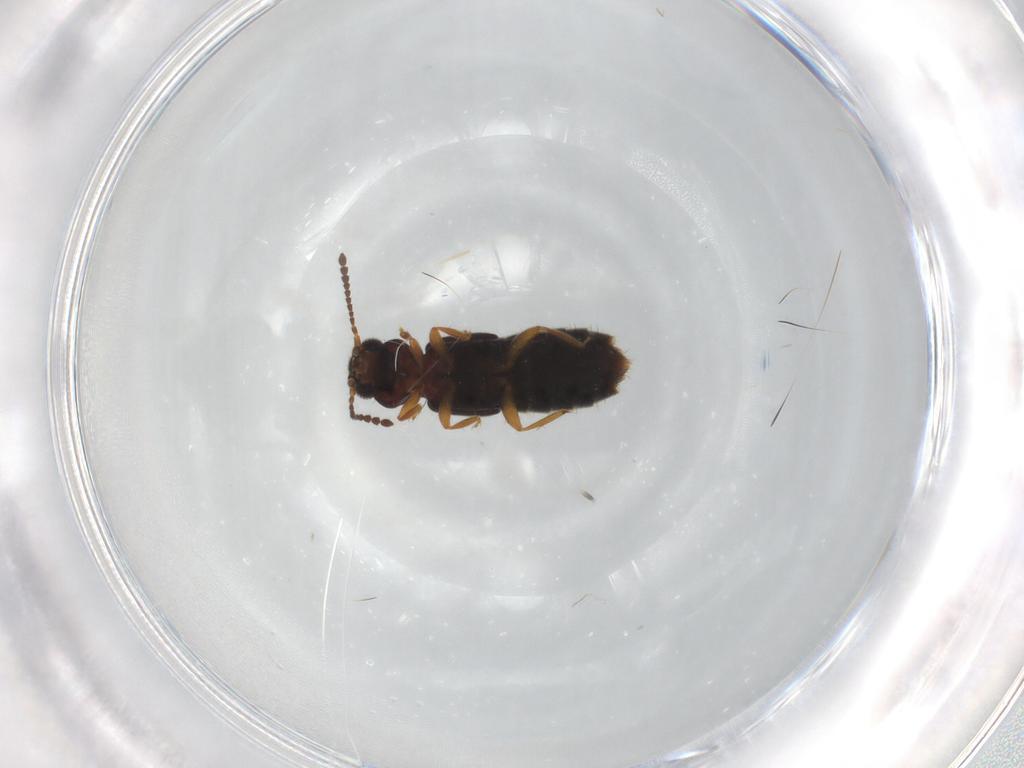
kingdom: Animalia
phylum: Arthropoda
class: Insecta
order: Coleoptera
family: Staphylinidae
